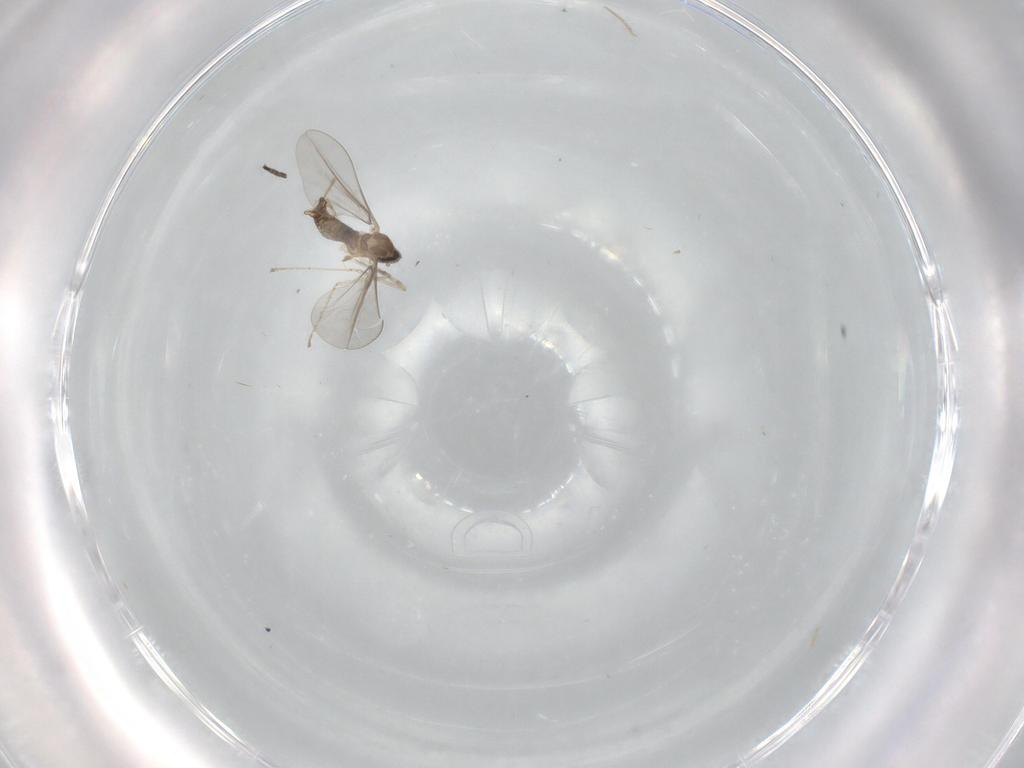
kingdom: Animalia
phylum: Arthropoda
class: Insecta
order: Diptera
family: Cecidomyiidae
